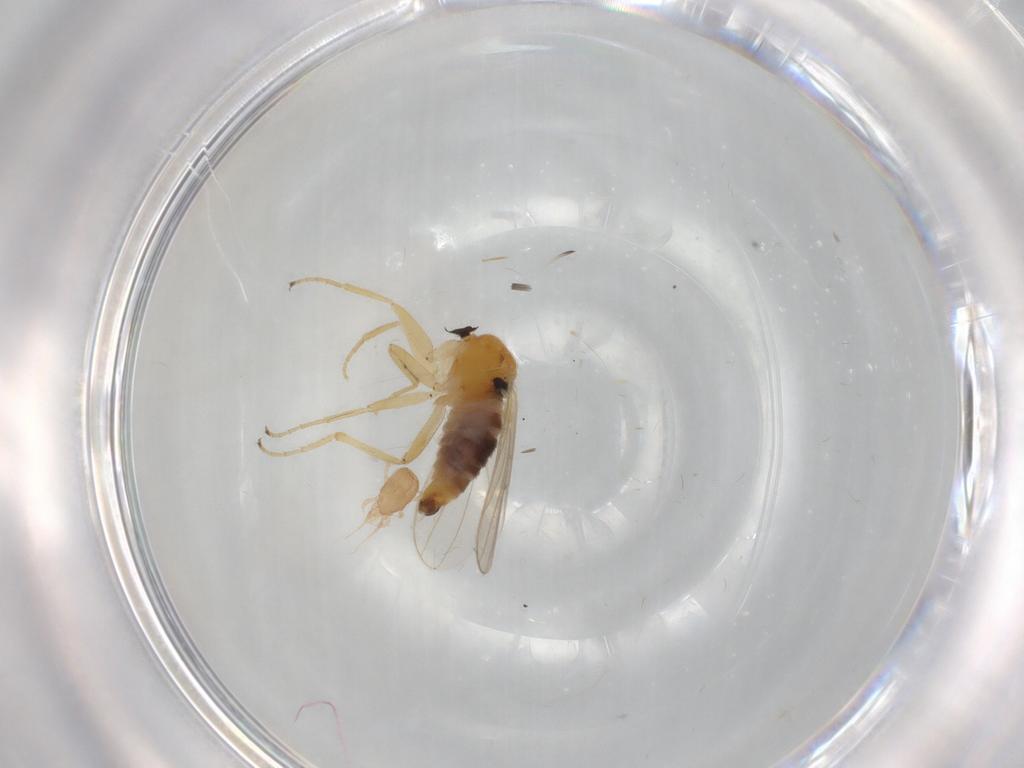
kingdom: Animalia
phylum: Arthropoda
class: Insecta
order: Diptera
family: Hybotidae
